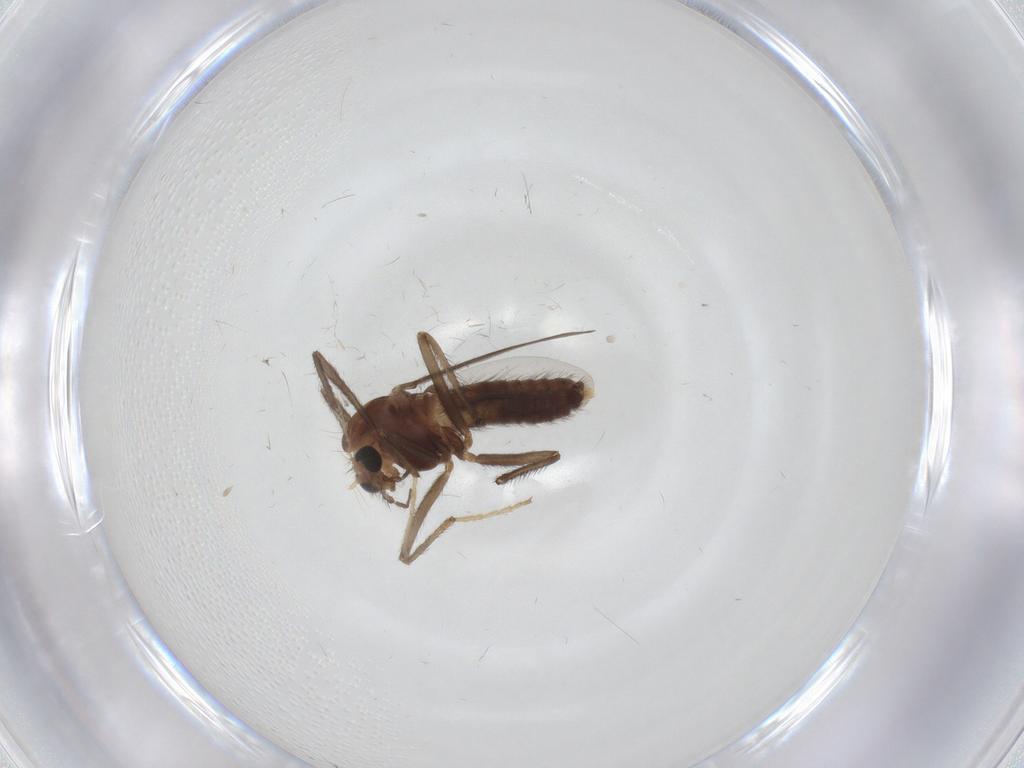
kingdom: Animalia
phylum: Arthropoda
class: Insecta
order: Diptera
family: Chironomidae
